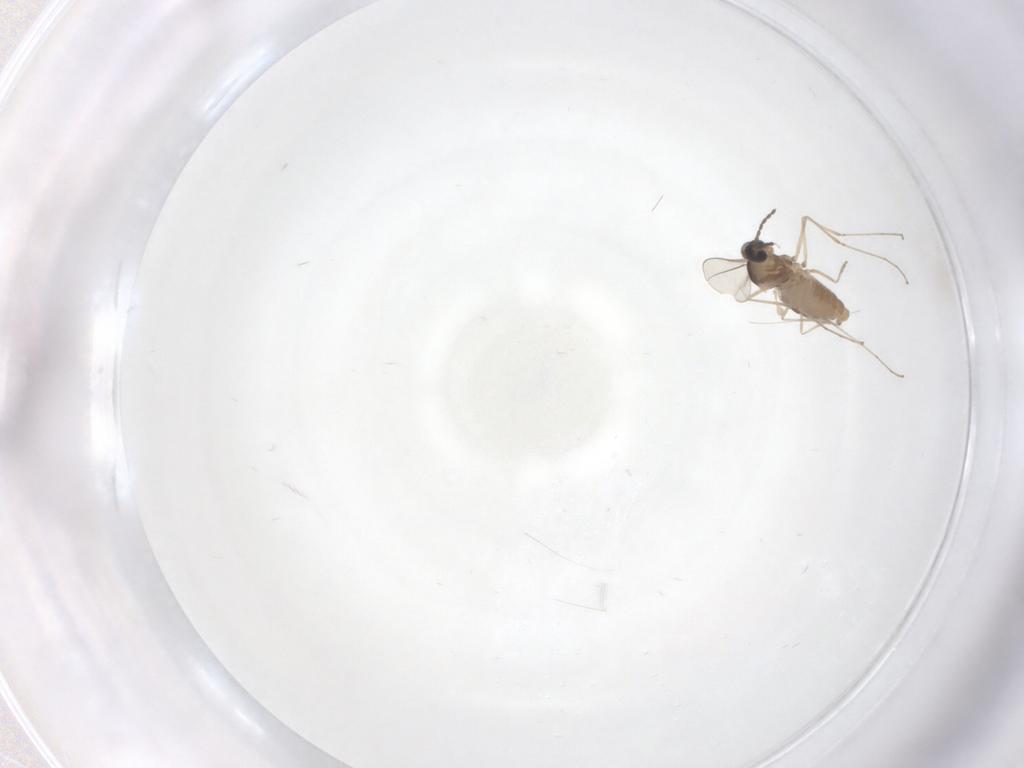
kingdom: Animalia
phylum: Arthropoda
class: Insecta
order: Diptera
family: Cecidomyiidae
